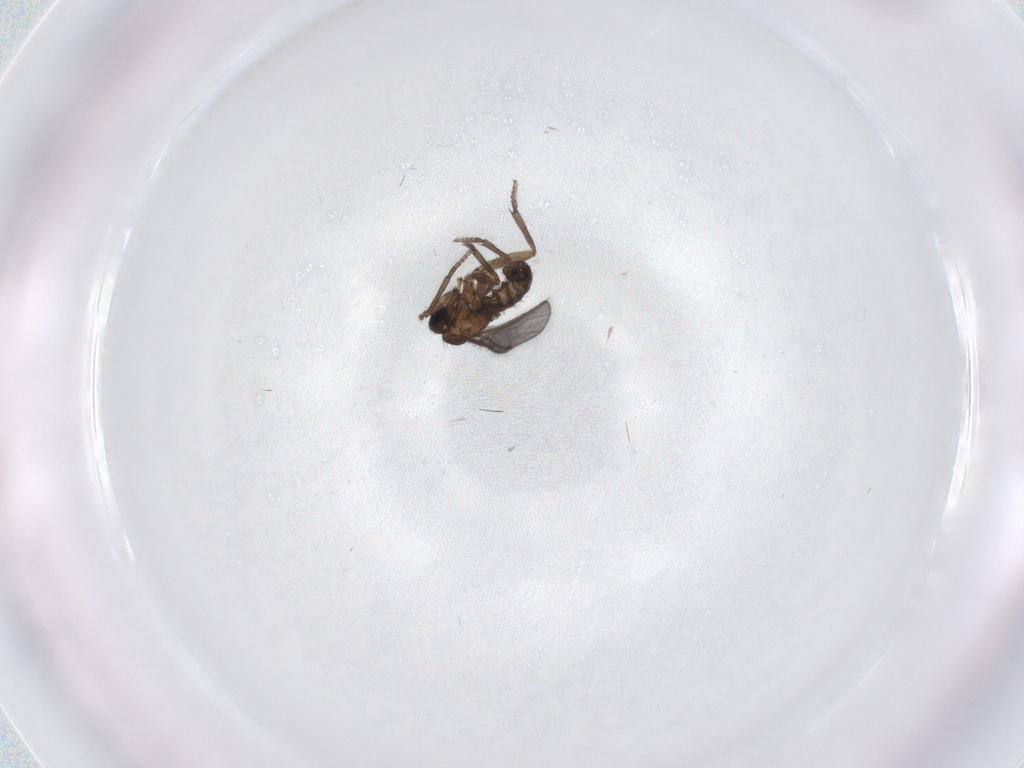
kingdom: Animalia
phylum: Arthropoda
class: Insecta
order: Diptera
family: Sciaridae
